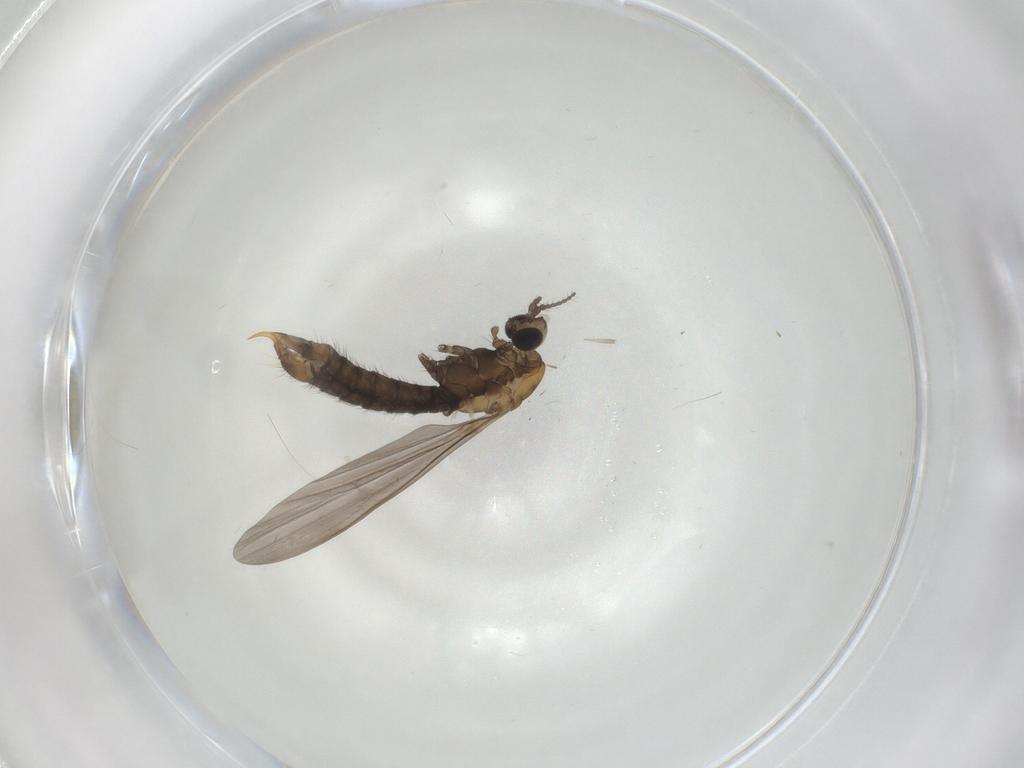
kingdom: Animalia
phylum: Arthropoda
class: Insecta
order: Diptera
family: Limoniidae
